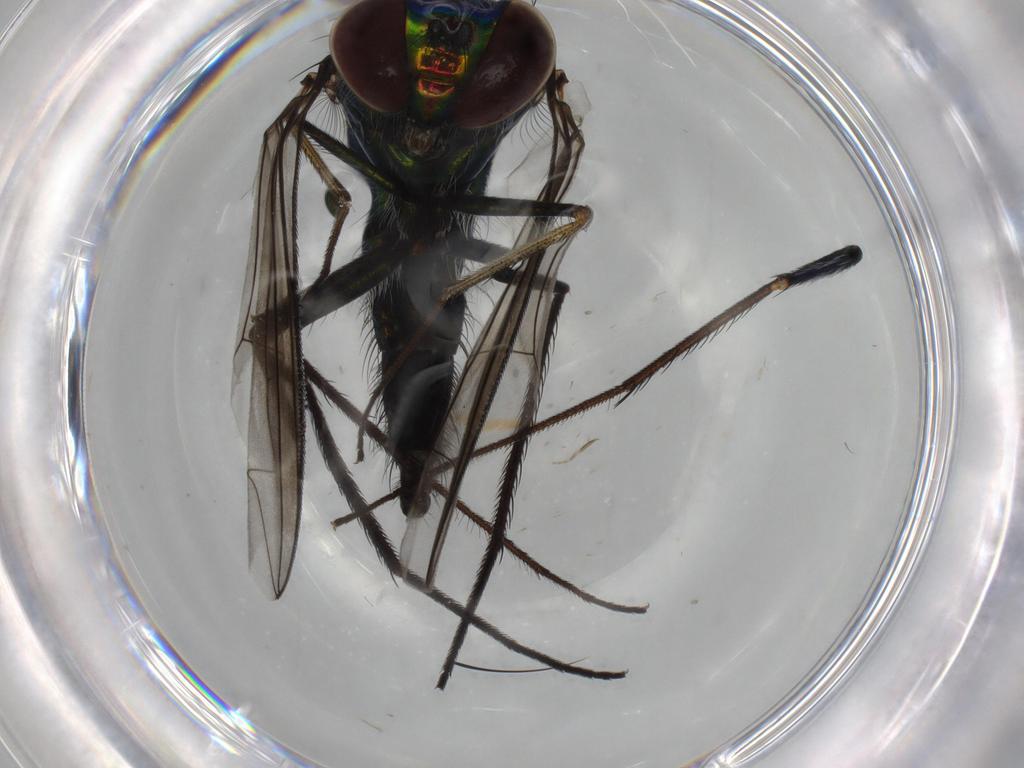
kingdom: Animalia
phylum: Arthropoda
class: Insecta
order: Diptera
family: Dolichopodidae
